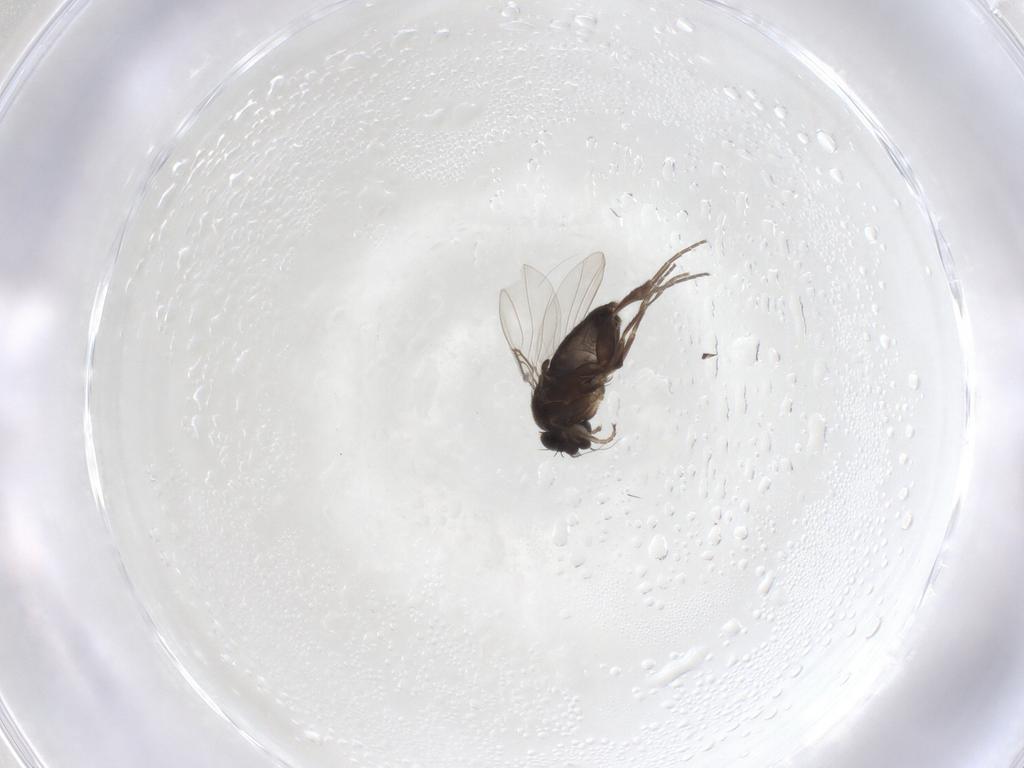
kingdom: Animalia
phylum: Arthropoda
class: Insecta
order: Diptera
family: Phoridae
